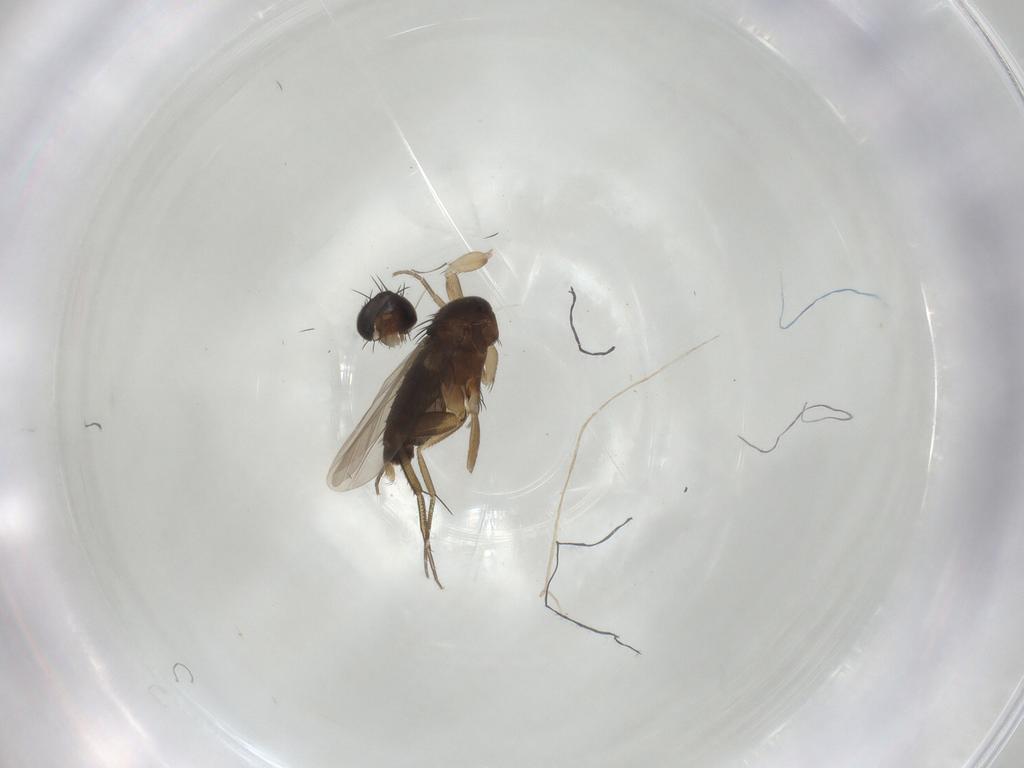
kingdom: Animalia
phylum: Arthropoda
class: Insecta
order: Diptera
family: Phoridae
